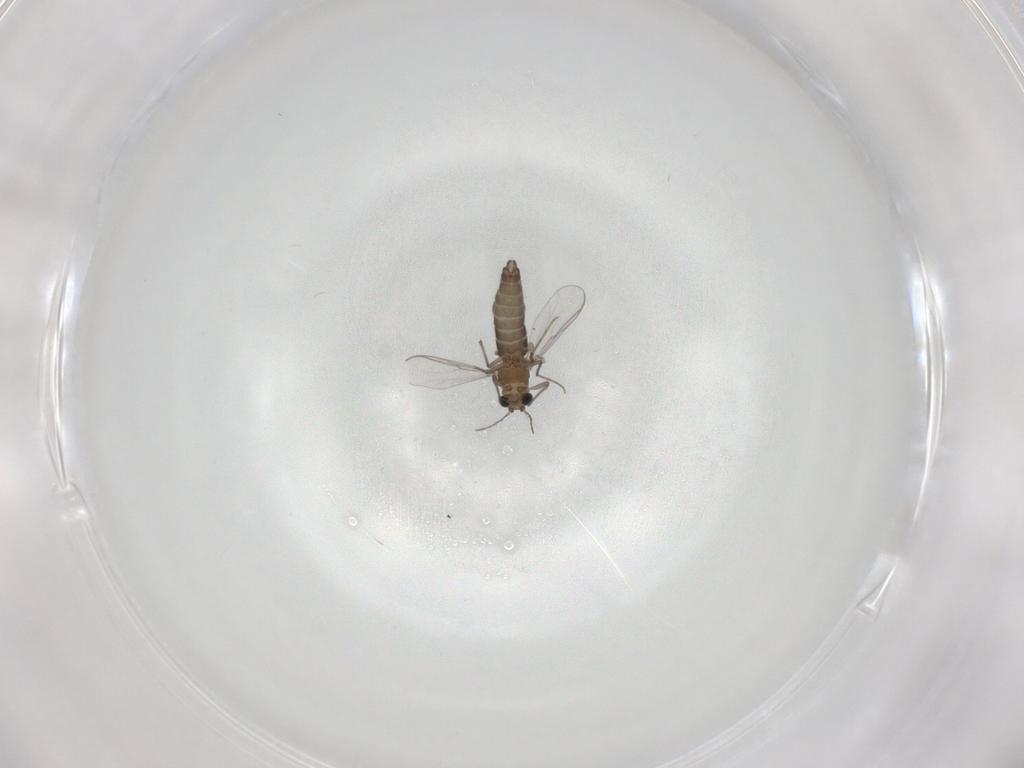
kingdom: Animalia
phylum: Arthropoda
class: Insecta
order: Diptera
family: Chironomidae
